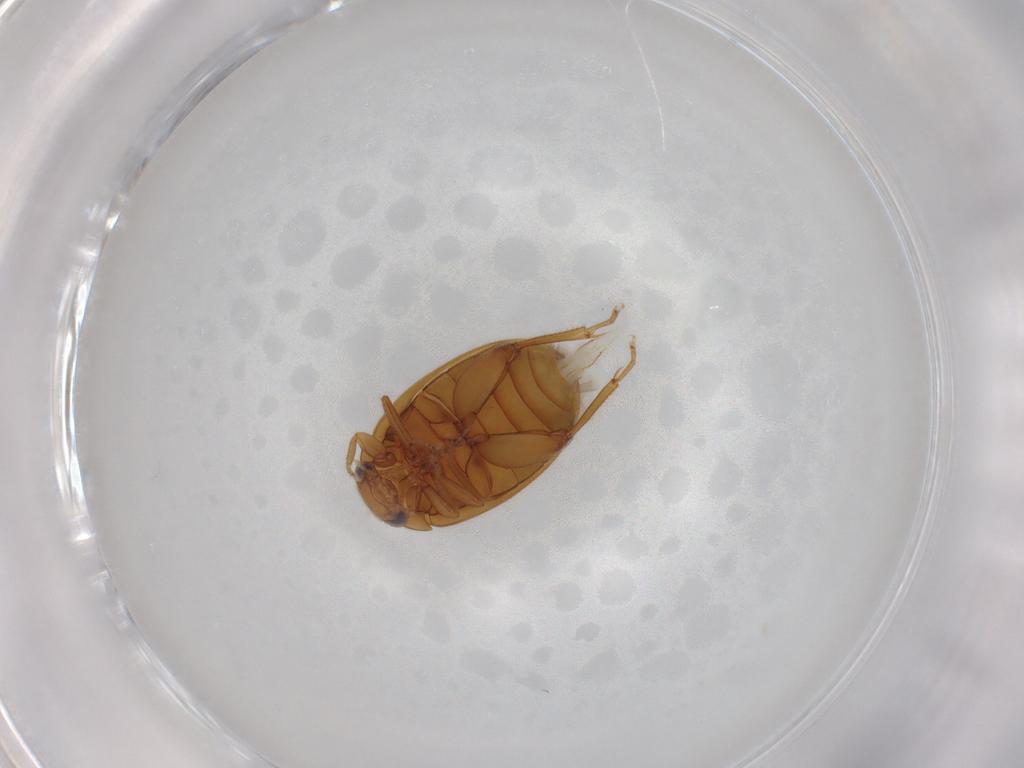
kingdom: Animalia
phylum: Arthropoda
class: Insecta
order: Coleoptera
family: Scirtidae
